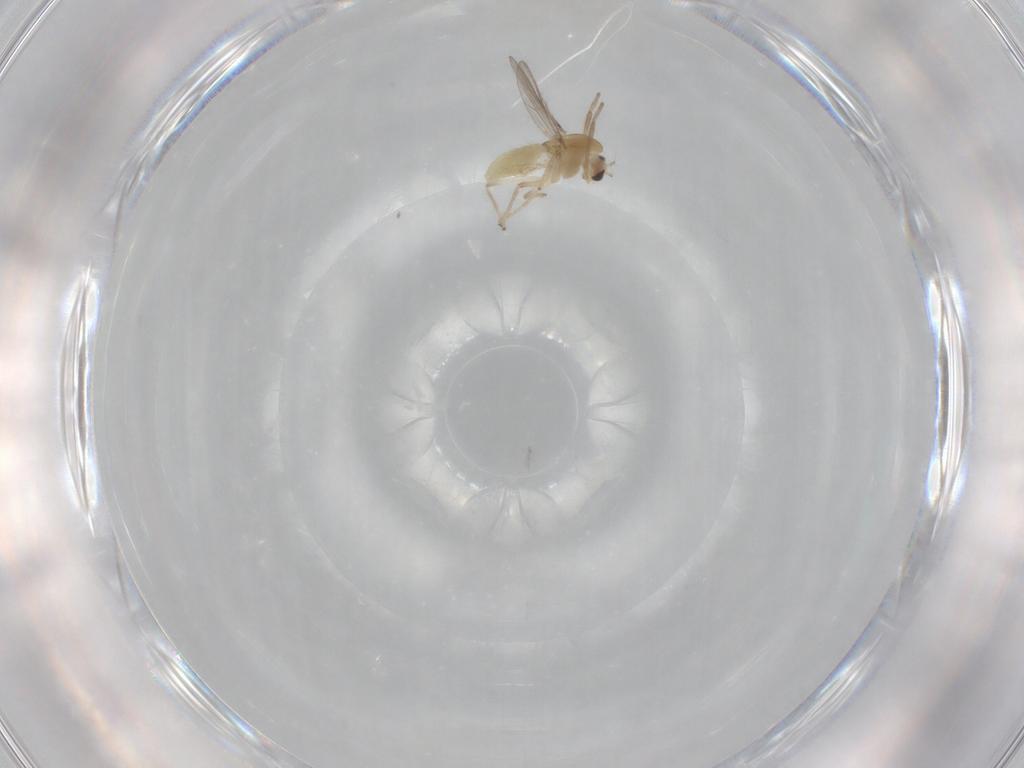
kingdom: Animalia
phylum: Arthropoda
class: Insecta
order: Diptera
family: Chironomidae
